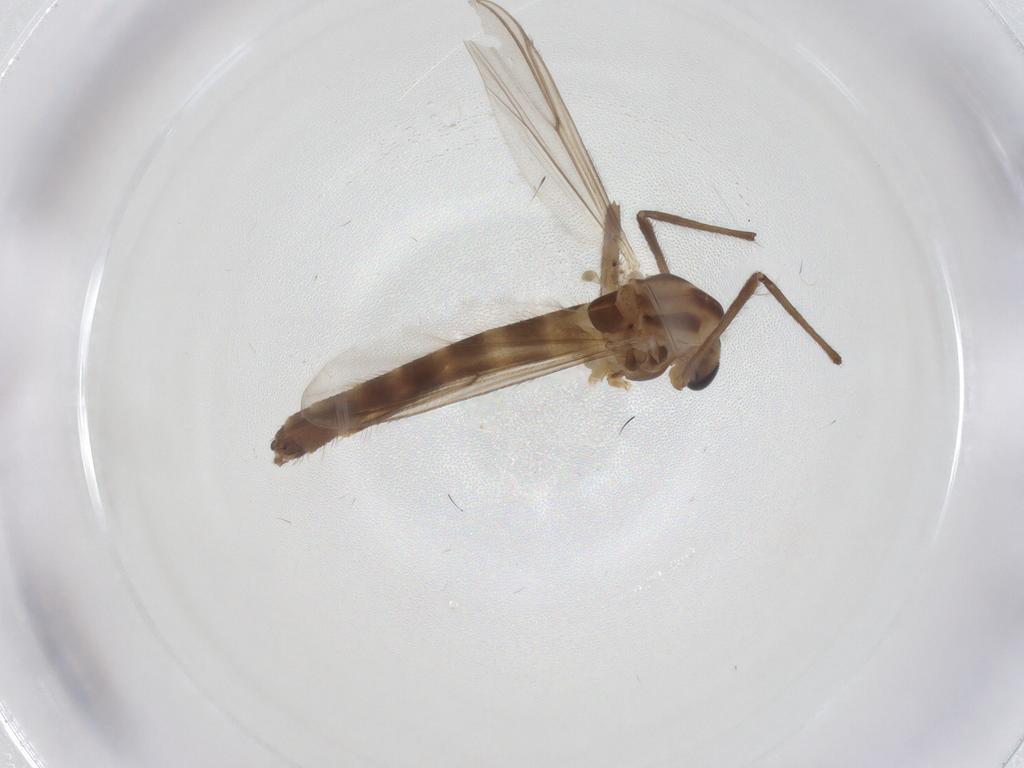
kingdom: Animalia
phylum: Arthropoda
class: Insecta
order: Diptera
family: Chironomidae
